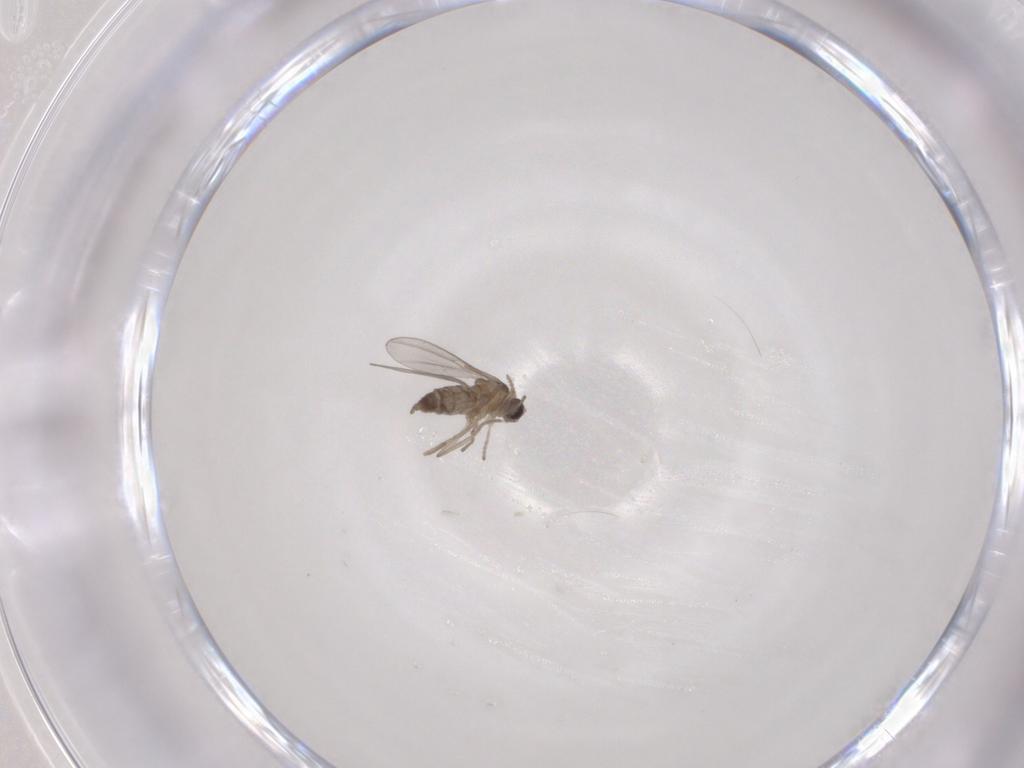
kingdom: Animalia
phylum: Arthropoda
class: Insecta
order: Diptera
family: Cecidomyiidae
